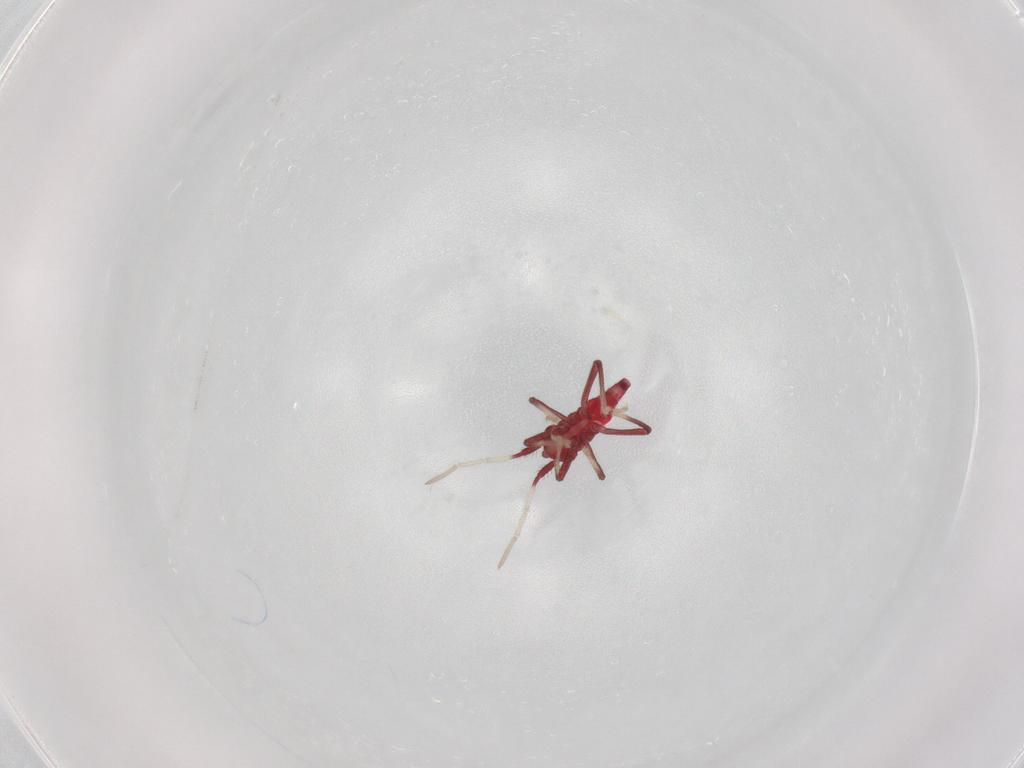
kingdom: Animalia
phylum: Arthropoda
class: Insecta
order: Hemiptera
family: Miridae
